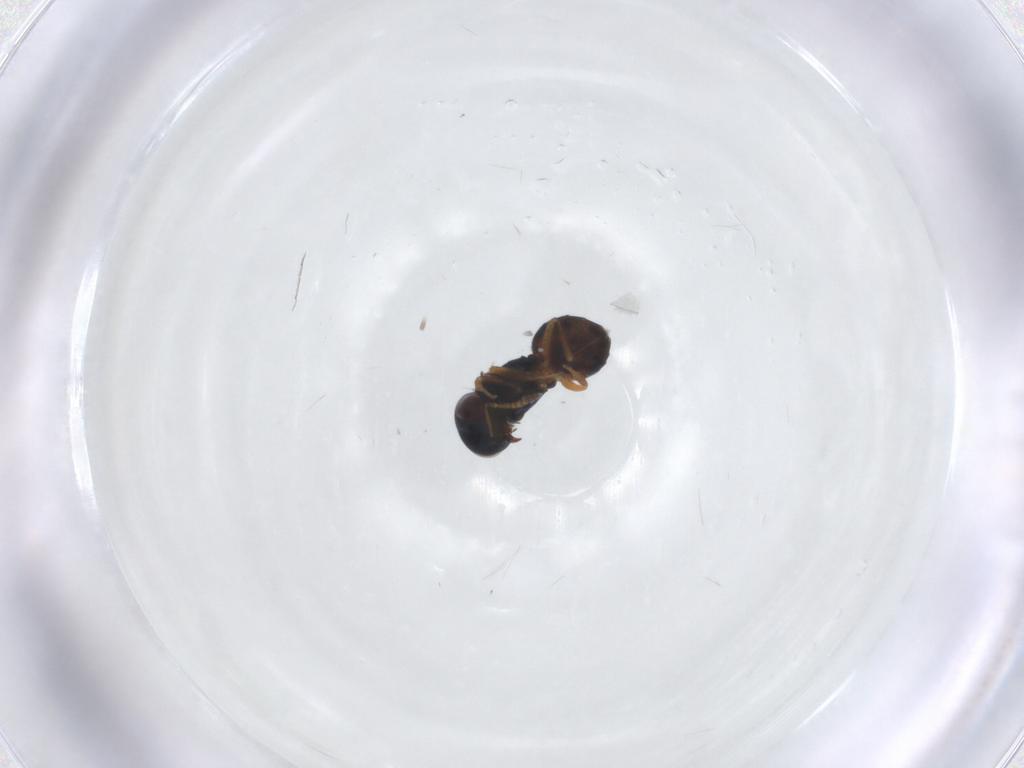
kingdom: Animalia
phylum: Arthropoda
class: Insecta
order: Hymenoptera
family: Pteromalidae
